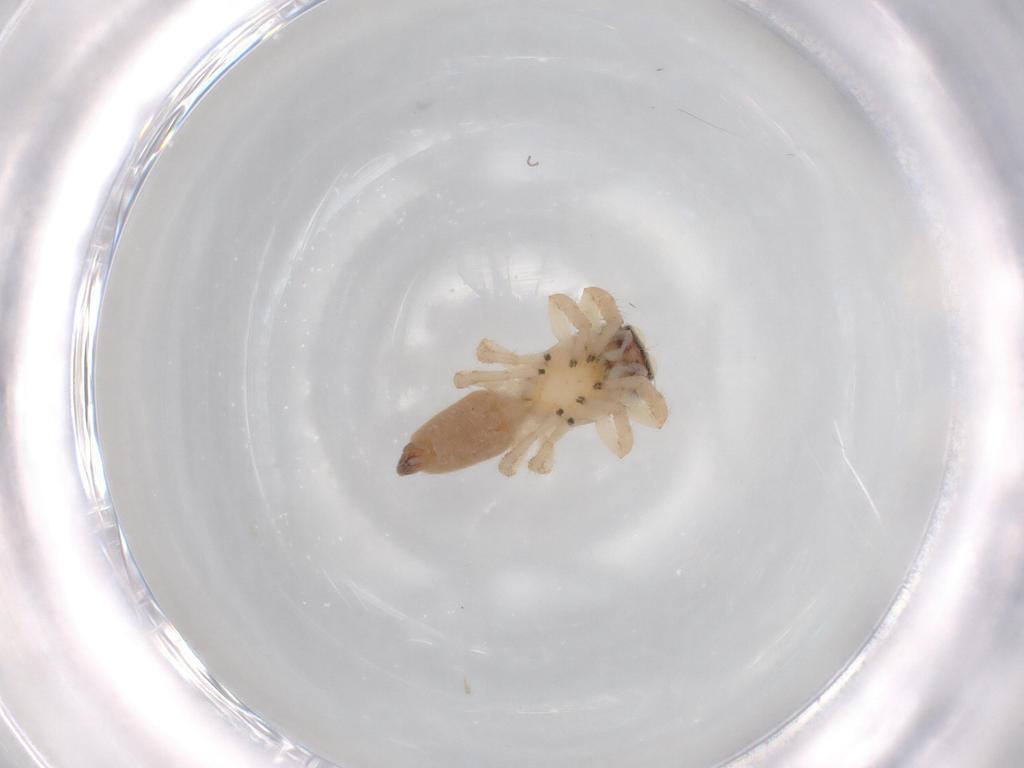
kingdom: Animalia
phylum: Arthropoda
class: Arachnida
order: Araneae
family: Salticidae
